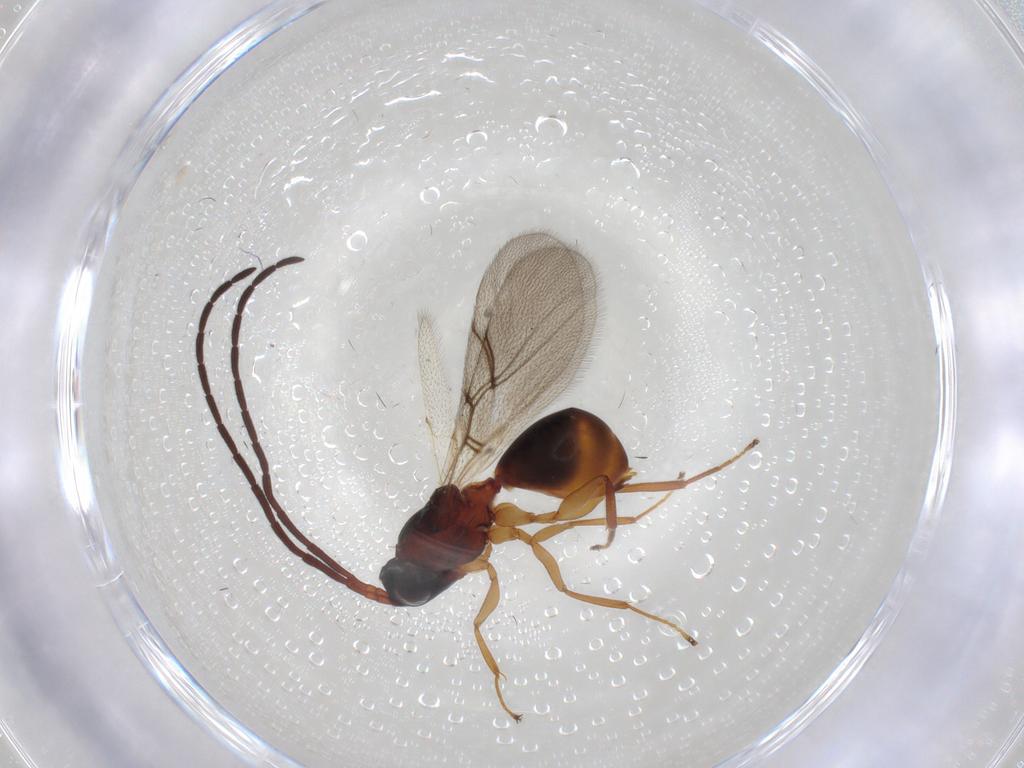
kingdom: Animalia
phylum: Arthropoda
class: Insecta
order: Hymenoptera
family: Figitidae
